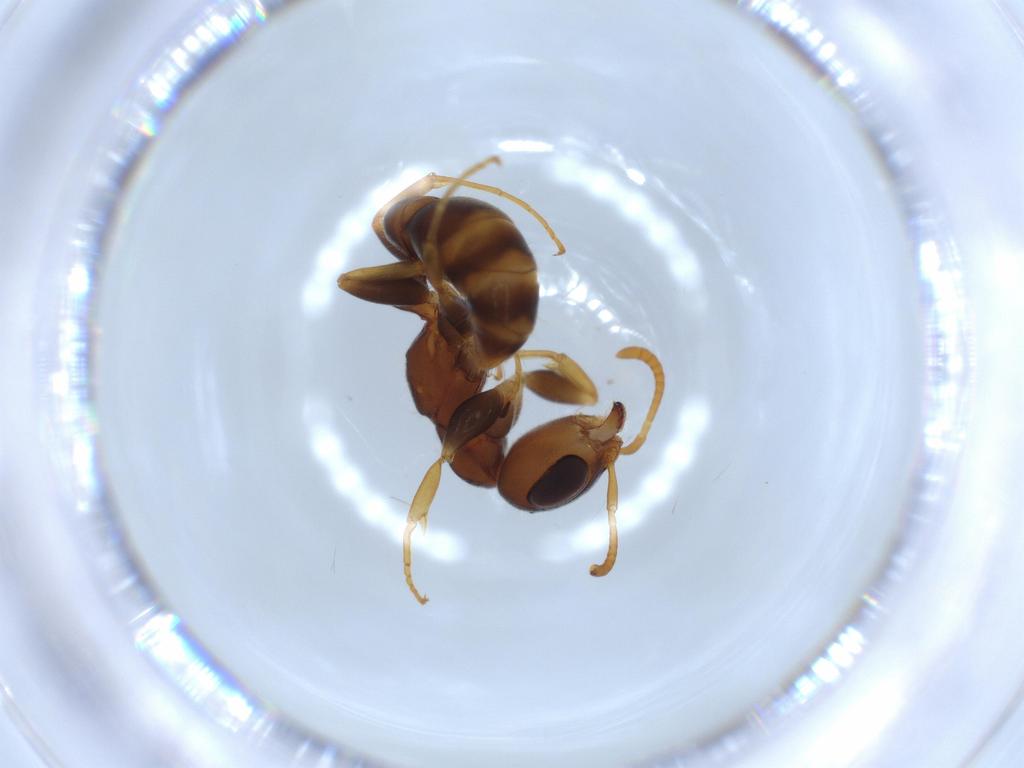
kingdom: Animalia
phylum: Arthropoda
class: Insecta
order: Hymenoptera
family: Formicidae
